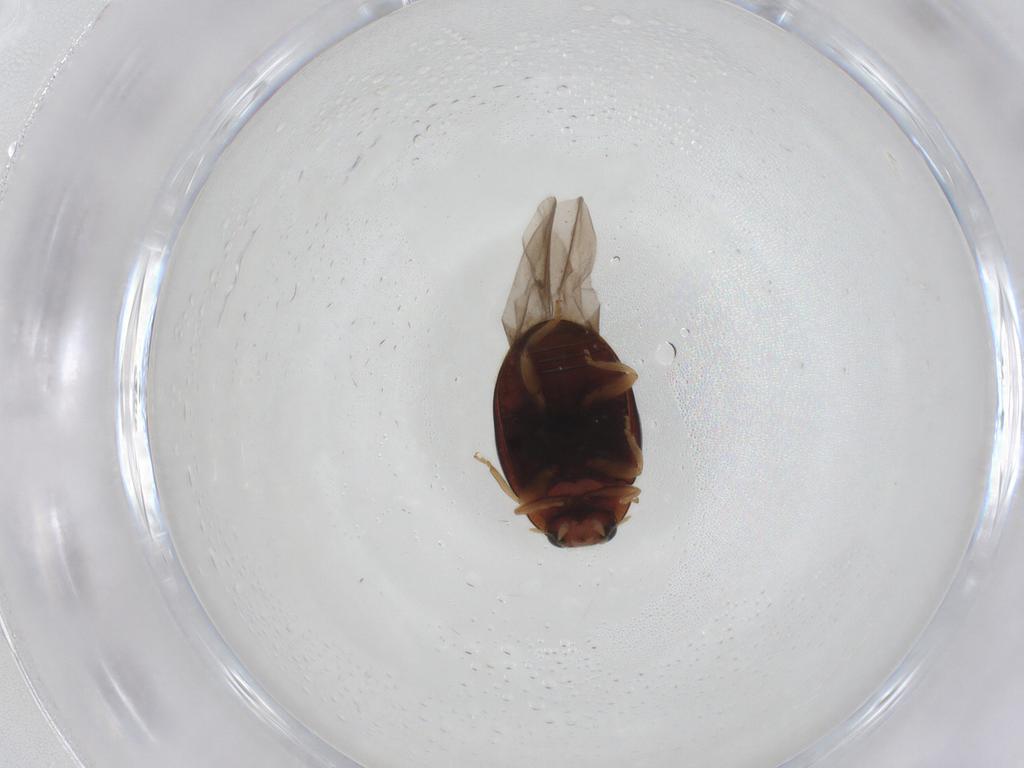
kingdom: Animalia
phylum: Arthropoda
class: Insecta
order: Coleoptera
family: Coccinellidae
